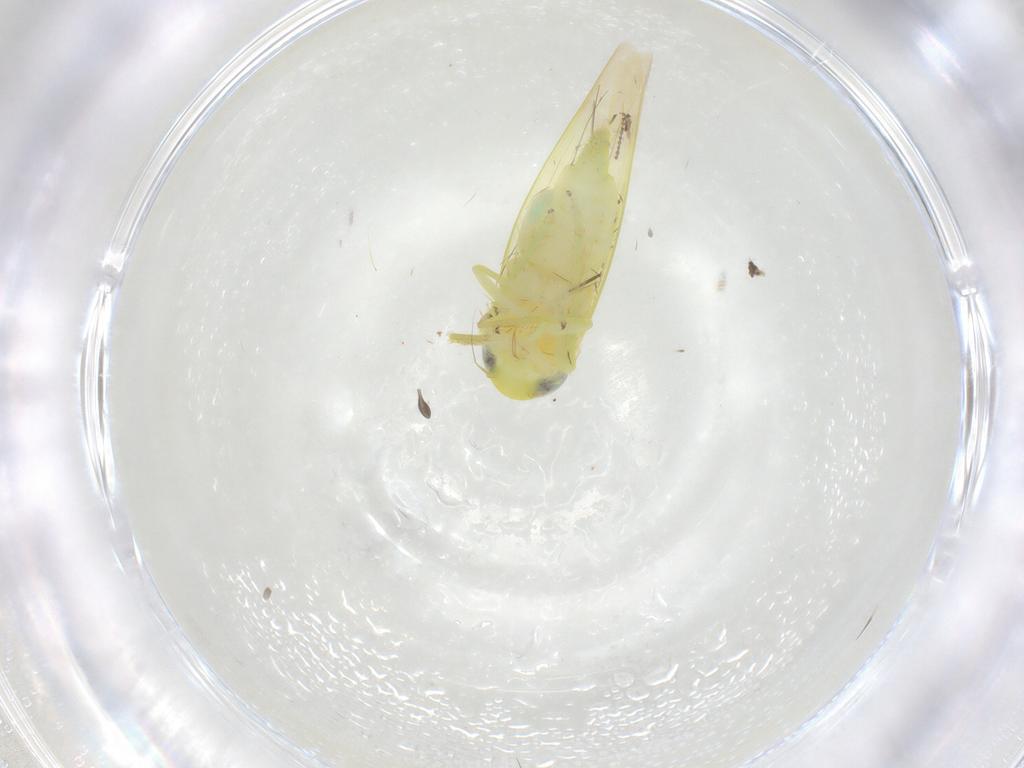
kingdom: Animalia
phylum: Arthropoda
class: Insecta
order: Hemiptera
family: Cicadellidae
